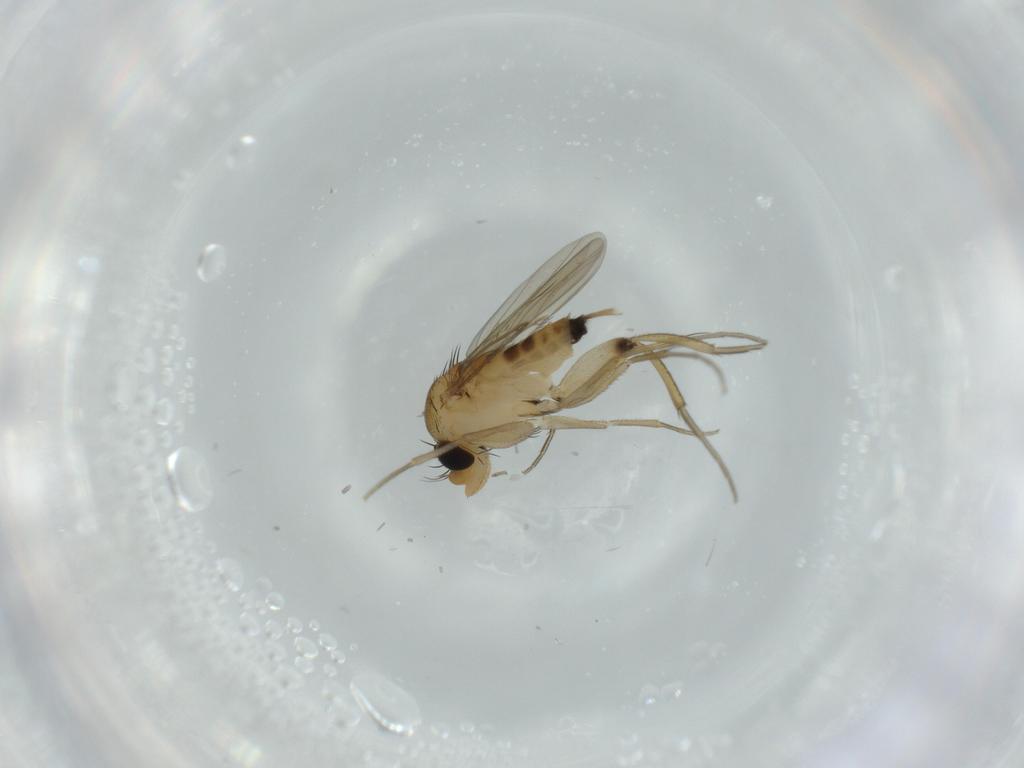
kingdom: Animalia
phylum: Arthropoda
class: Insecta
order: Diptera
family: Phoridae
